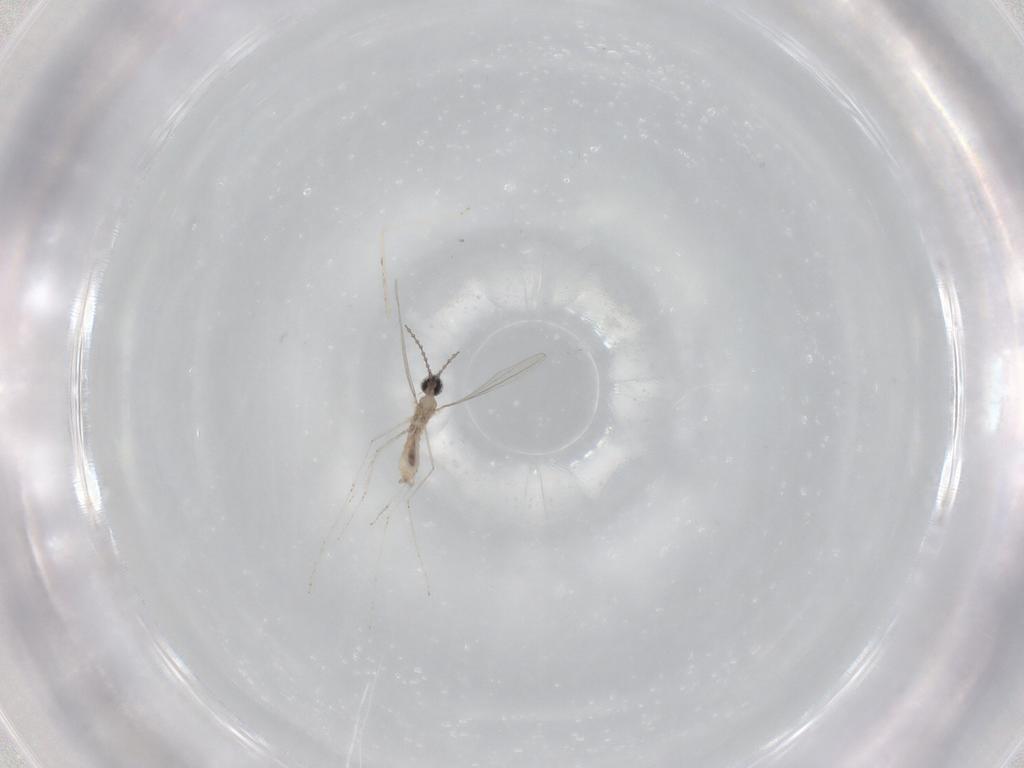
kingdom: Animalia
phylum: Arthropoda
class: Insecta
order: Diptera
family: Chironomidae
